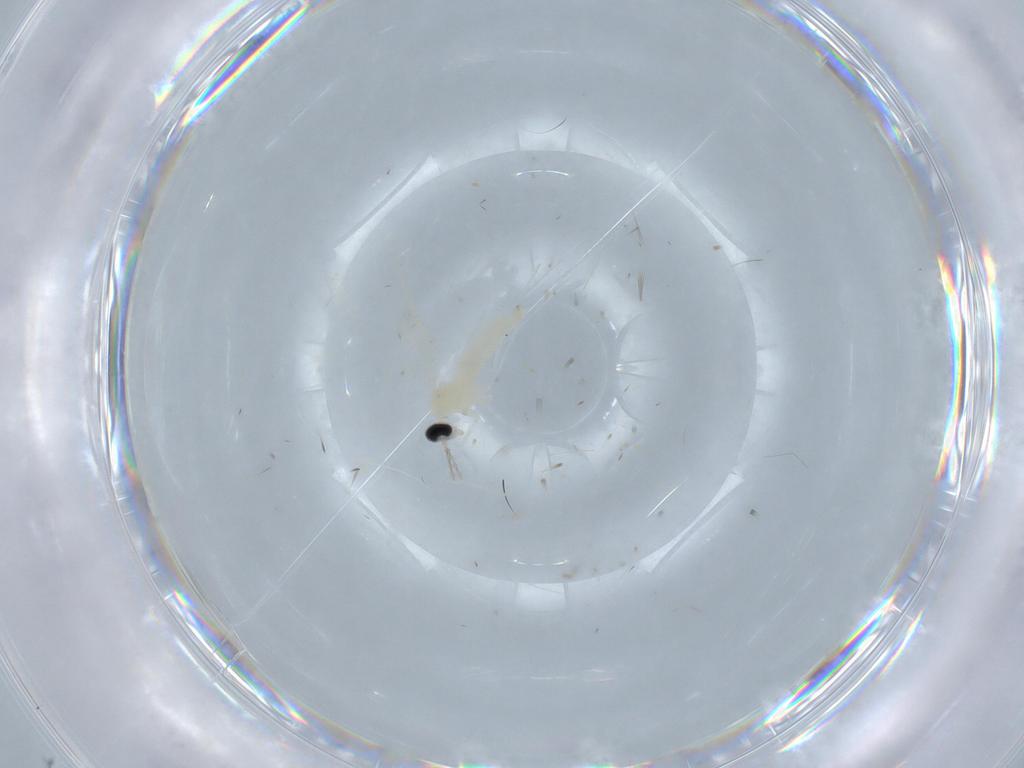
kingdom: Animalia
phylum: Arthropoda
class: Insecta
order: Diptera
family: Cecidomyiidae
